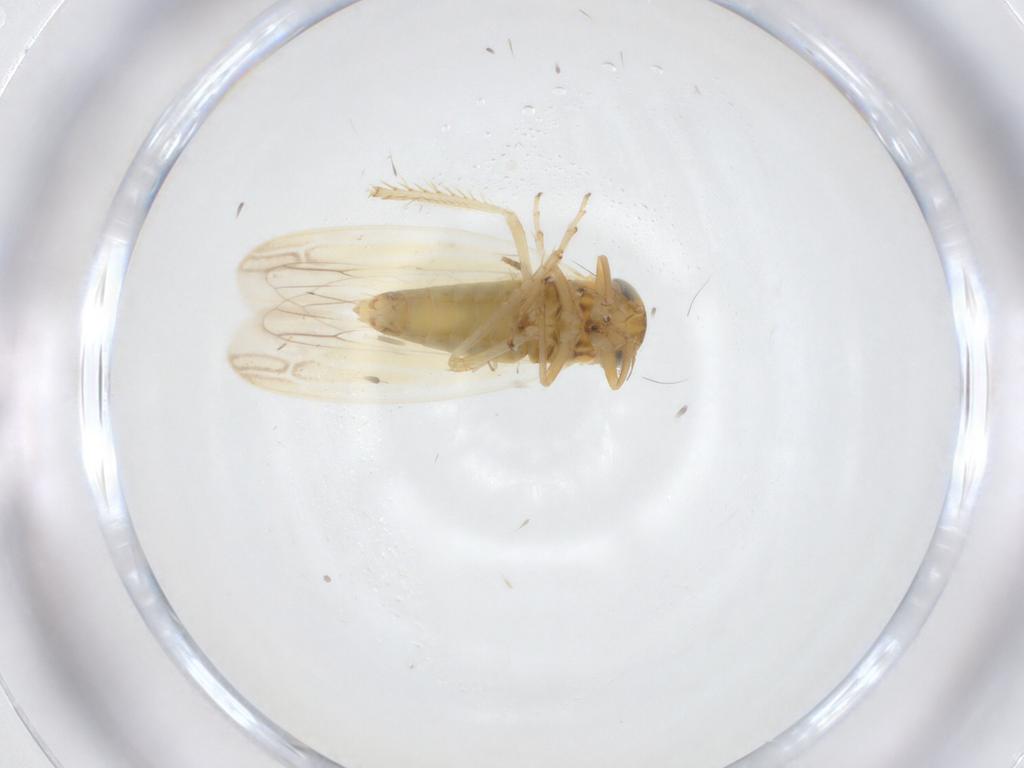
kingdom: Animalia
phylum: Arthropoda
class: Insecta
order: Hemiptera
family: Cicadellidae
